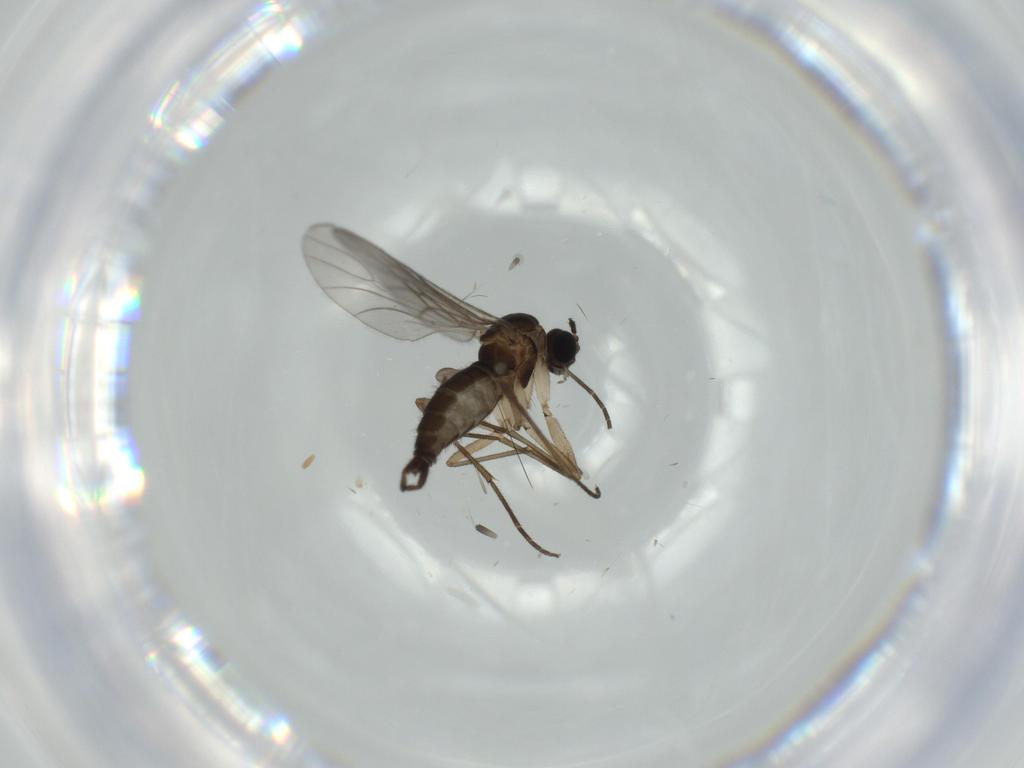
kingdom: Animalia
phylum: Arthropoda
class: Insecta
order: Diptera
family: Sciaridae
